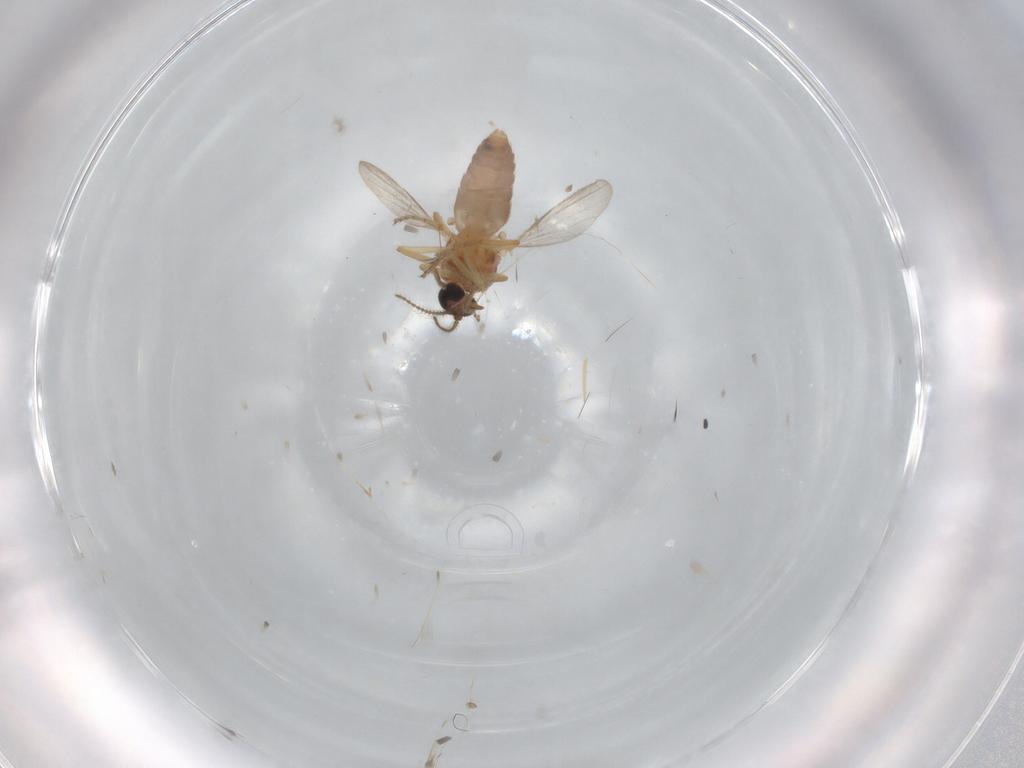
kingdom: Animalia
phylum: Arthropoda
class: Insecta
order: Diptera
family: Ceratopogonidae
